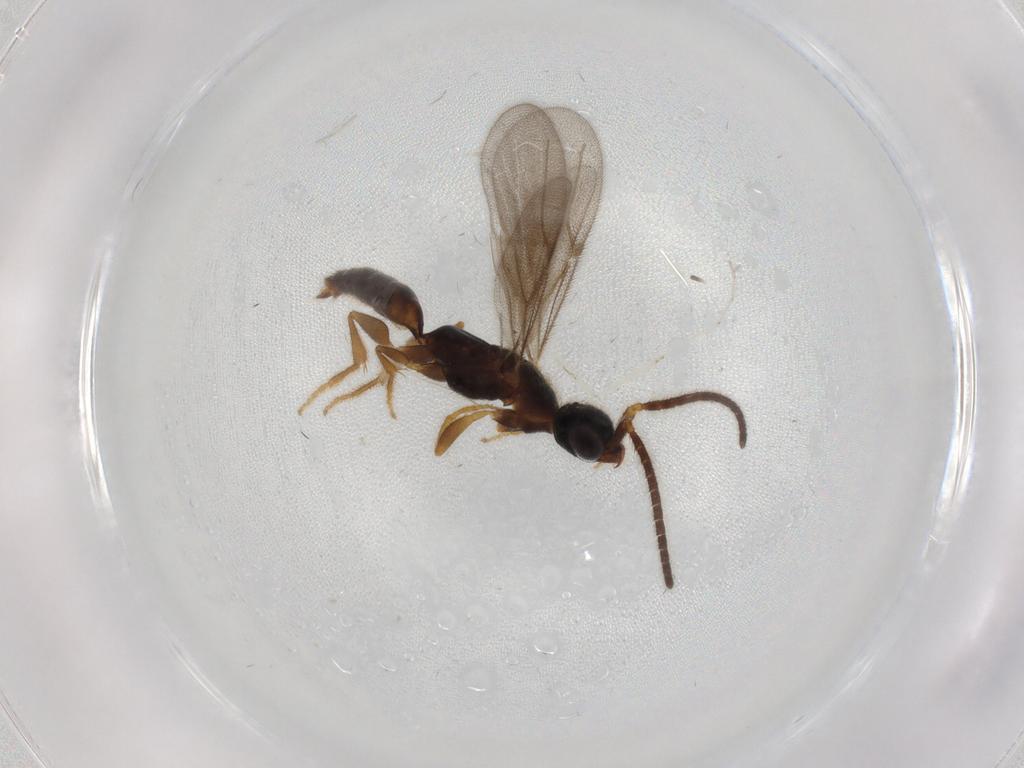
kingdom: Animalia
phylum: Arthropoda
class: Insecta
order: Hymenoptera
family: Bethylidae
